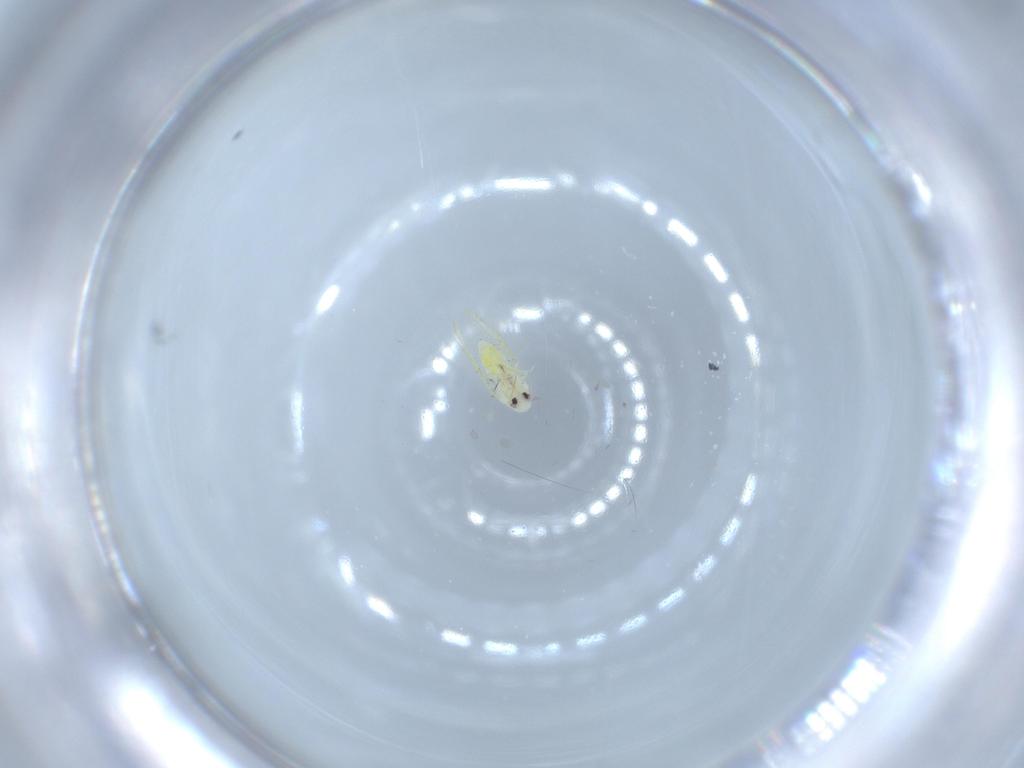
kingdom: Animalia
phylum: Arthropoda
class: Insecta
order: Hemiptera
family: Aleyrodidae
